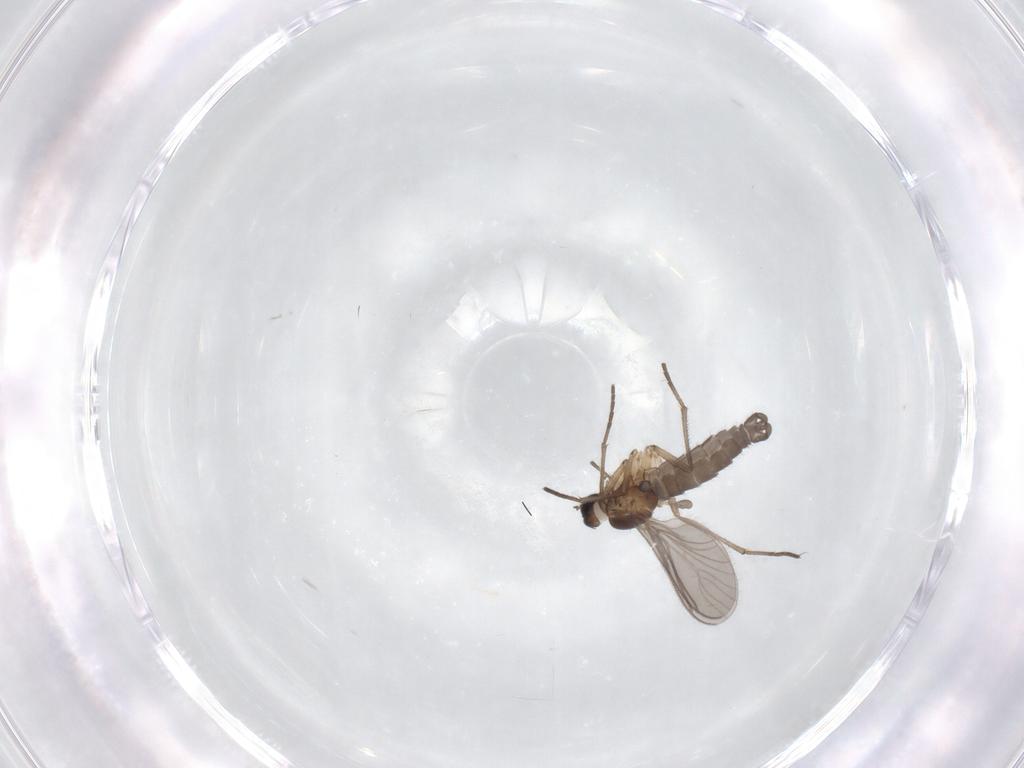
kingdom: Animalia
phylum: Arthropoda
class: Insecta
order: Diptera
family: Sciaridae
